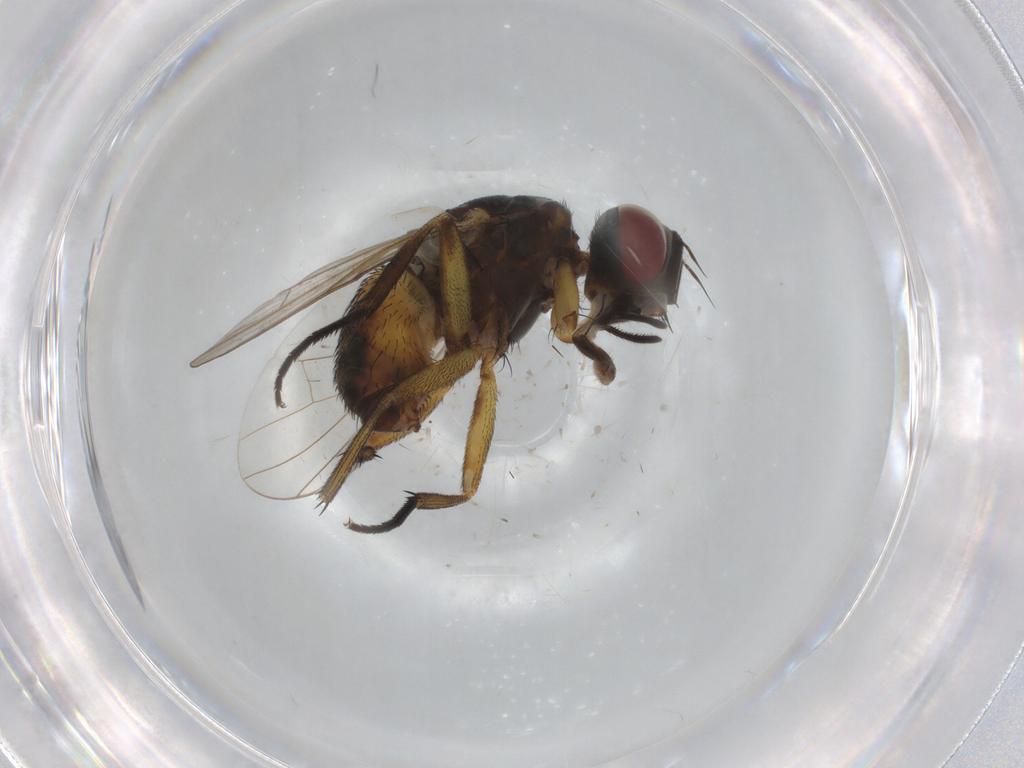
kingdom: Animalia
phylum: Arthropoda
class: Insecta
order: Diptera
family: Muscidae
